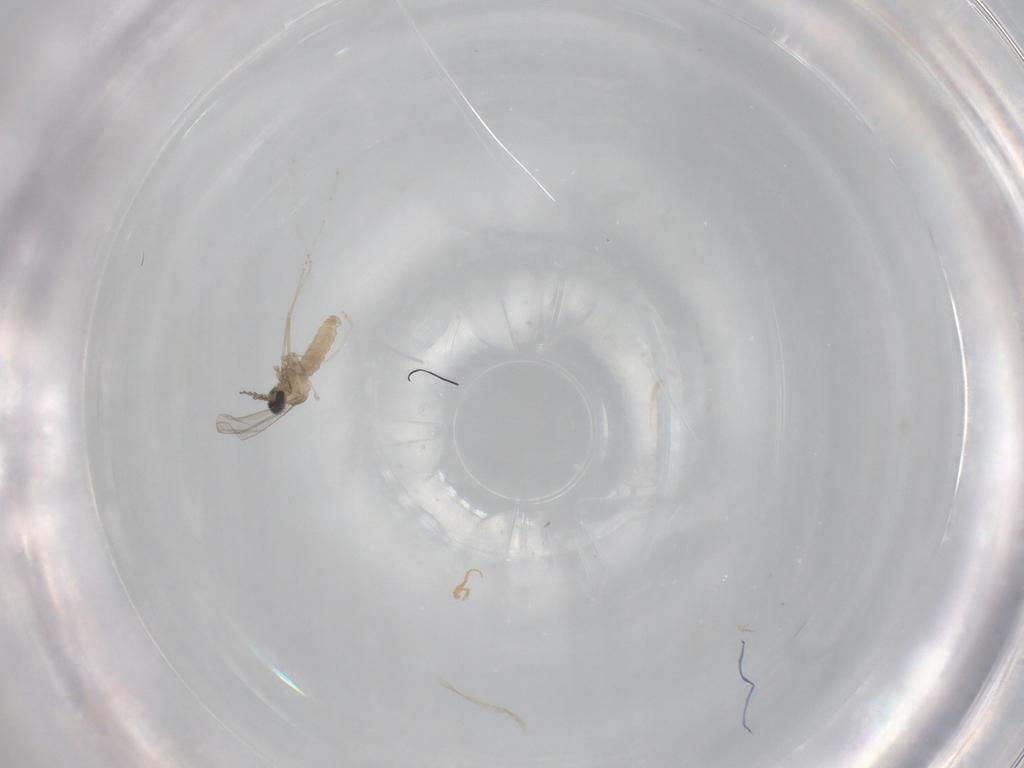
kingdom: Animalia
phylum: Arthropoda
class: Insecta
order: Diptera
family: Cecidomyiidae
